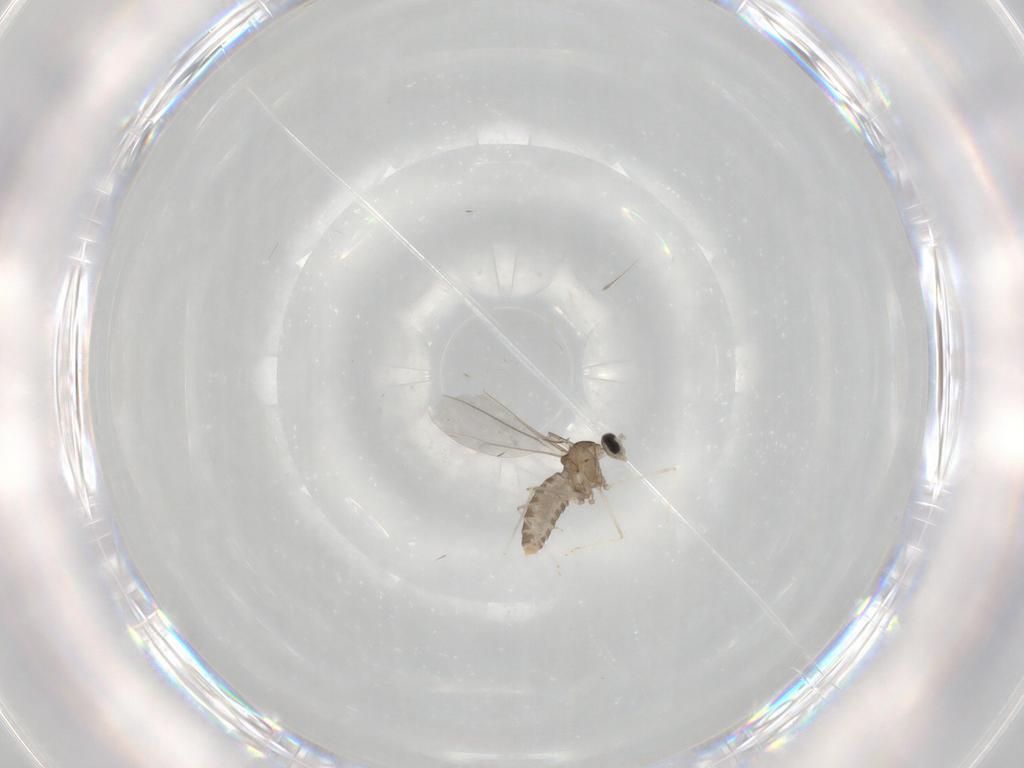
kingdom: Animalia
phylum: Arthropoda
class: Insecta
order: Diptera
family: Cecidomyiidae
